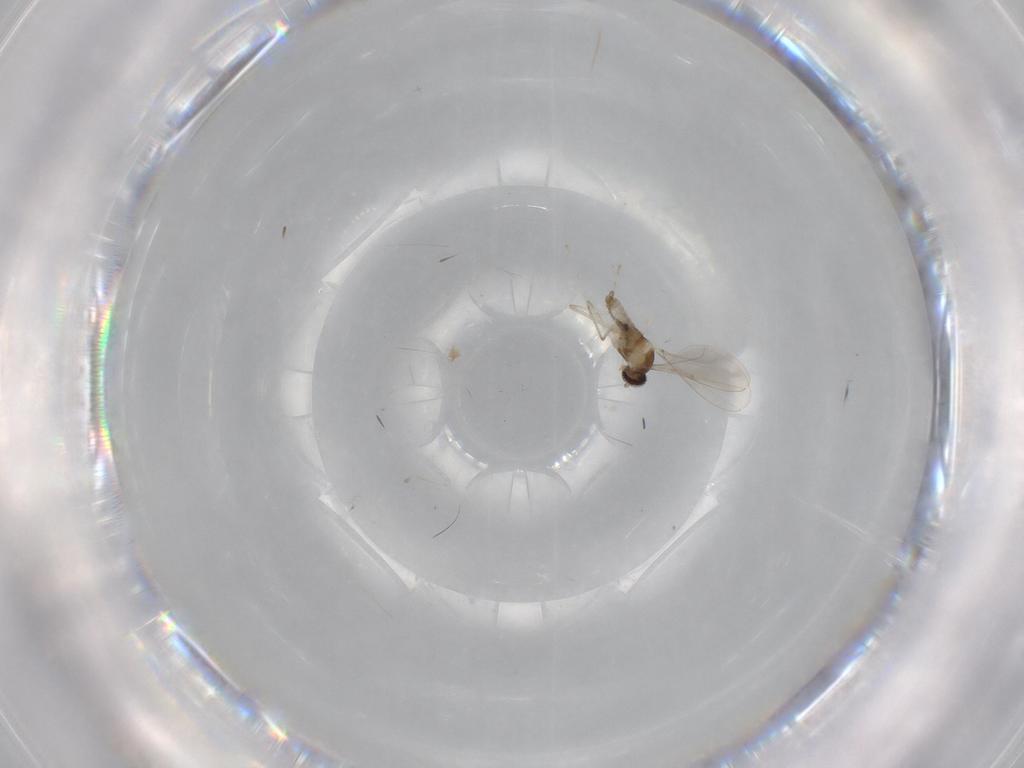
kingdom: Animalia
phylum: Arthropoda
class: Insecta
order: Diptera
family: Cecidomyiidae
